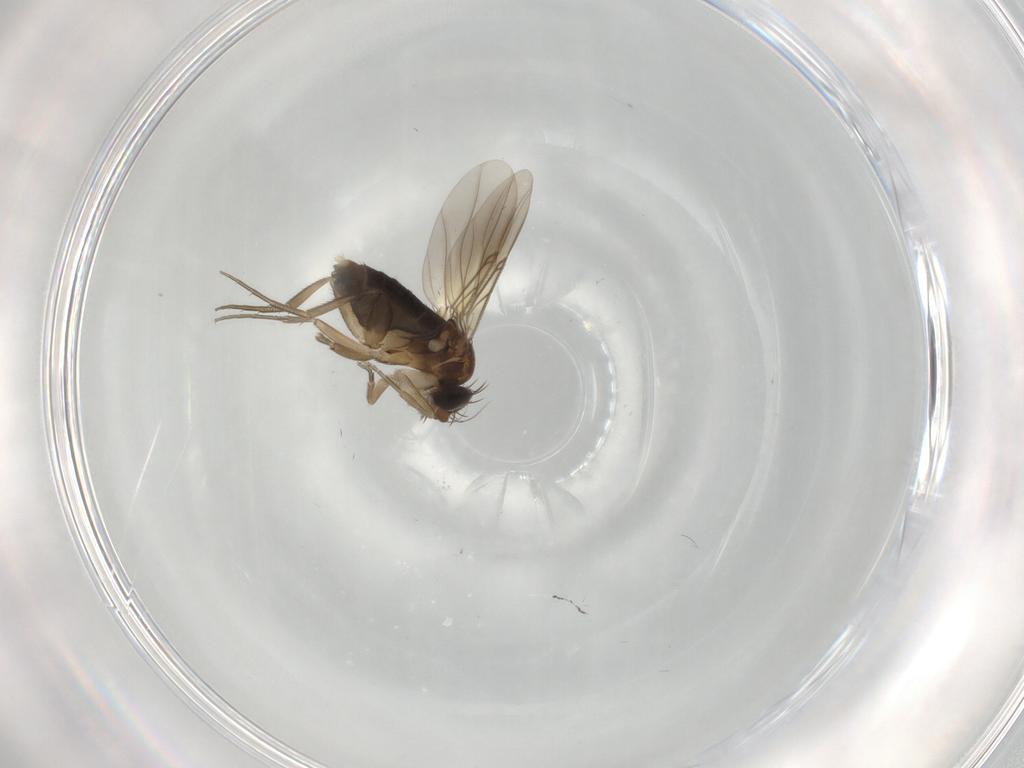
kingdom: Animalia
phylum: Arthropoda
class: Insecta
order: Diptera
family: Phoridae
